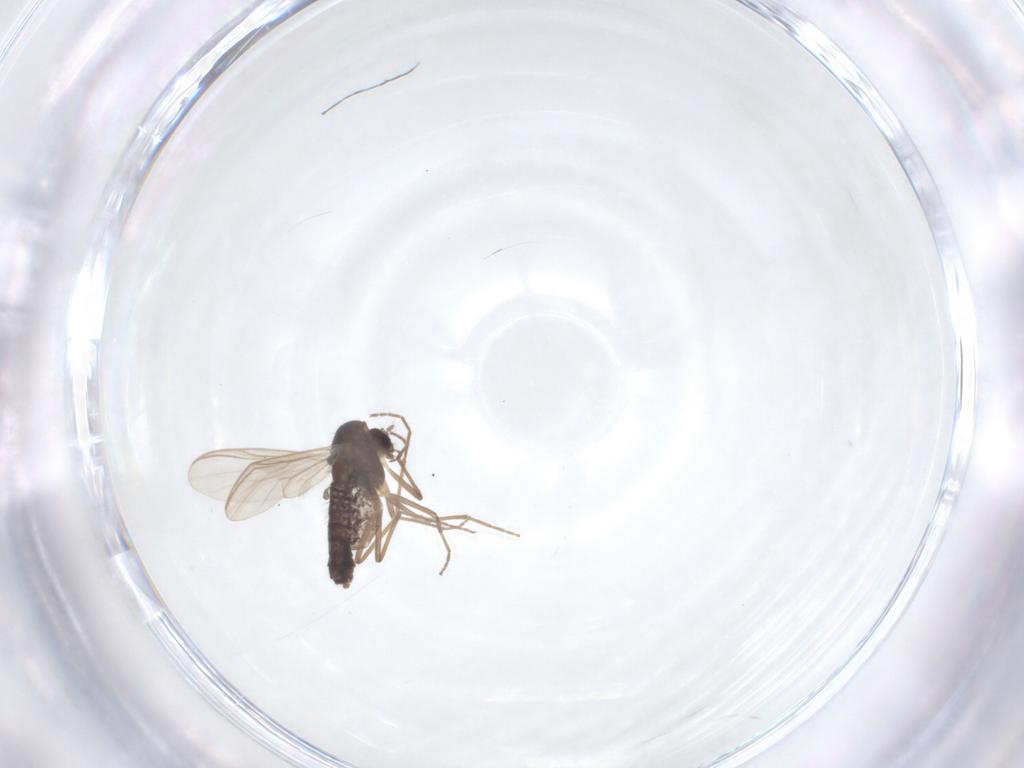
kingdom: Animalia
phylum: Arthropoda
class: Insecta
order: Diptera
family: Chironomidae
